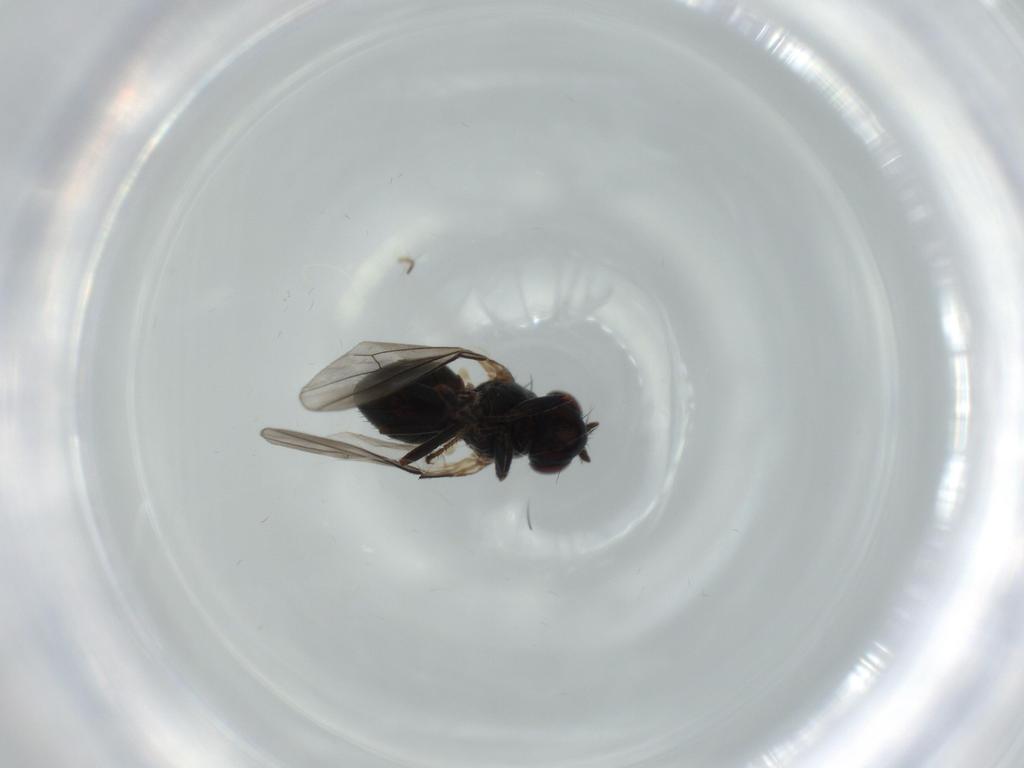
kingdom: Animalia
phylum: Arthropoda
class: Insecta
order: Diptera
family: Ephydridae
